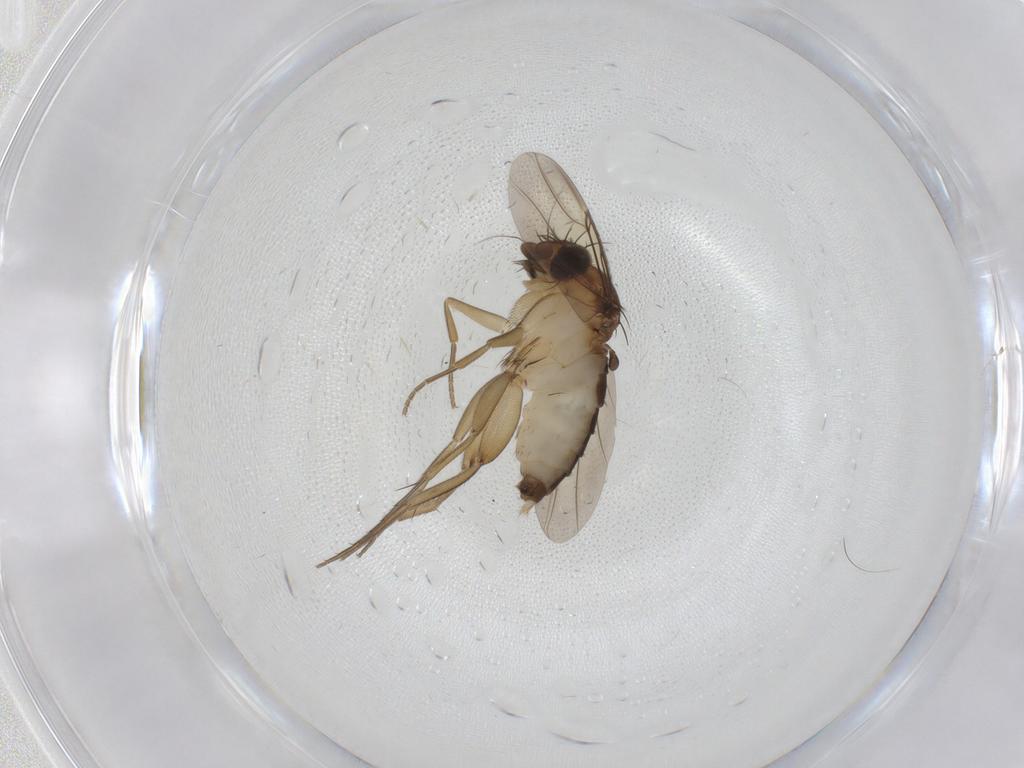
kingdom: Animalia
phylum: Arthropoda
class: Insecta
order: Diptera
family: Phoridae
